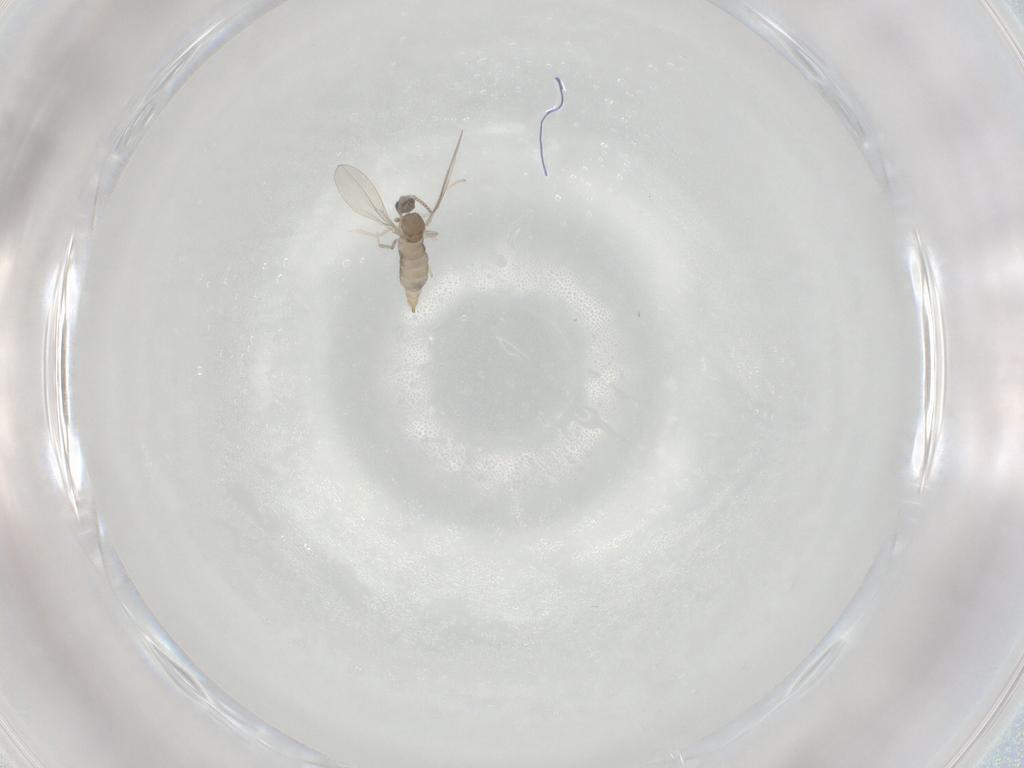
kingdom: Animalia
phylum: Arthropoda
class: Insecta
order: Diptera
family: Cecidomyiidae
